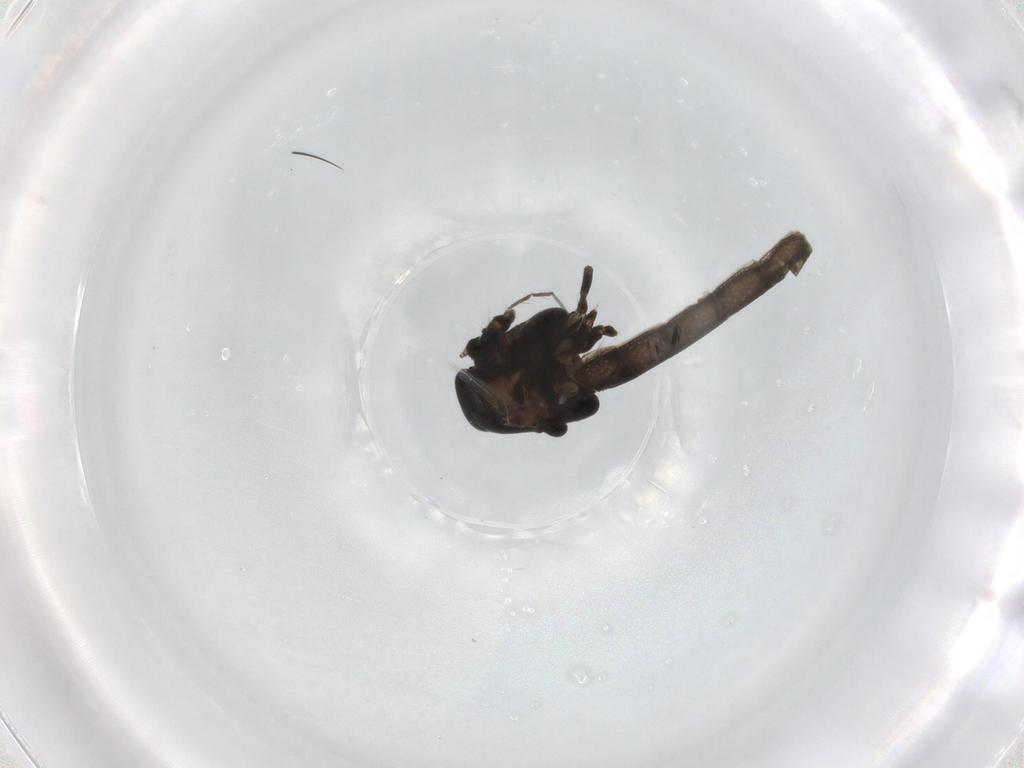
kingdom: Animalia
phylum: Arthropoda
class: Insecta
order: Diptera
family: Chironomidae
